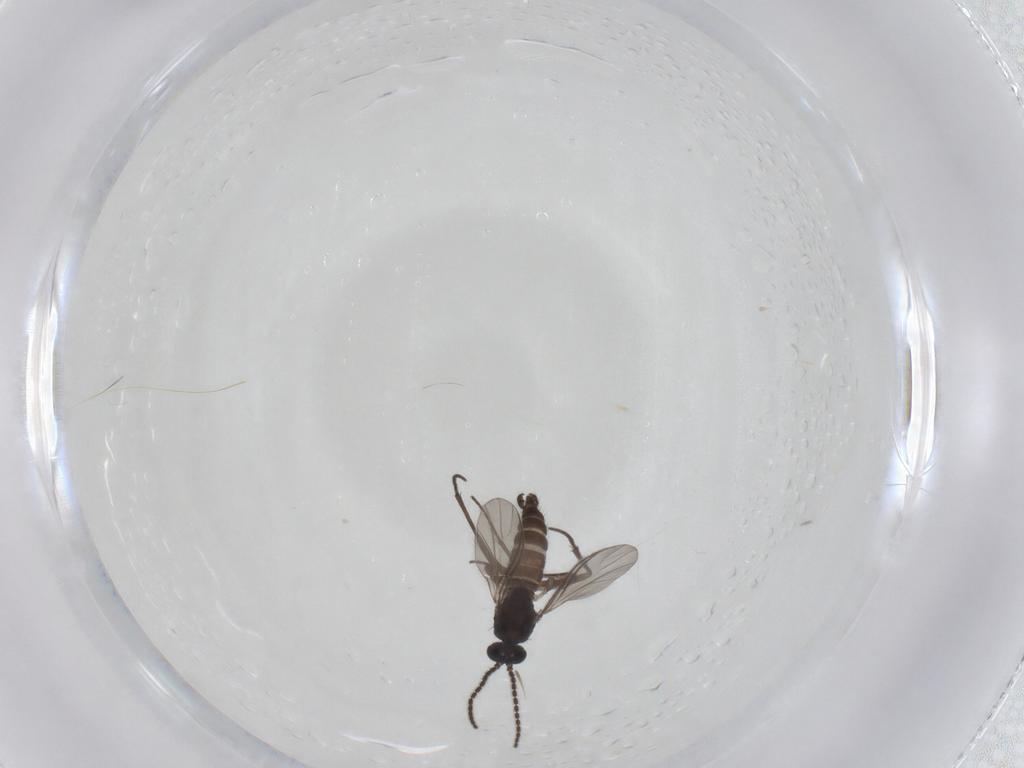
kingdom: Animalia
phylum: Arthropoda
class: Insecta
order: Diptera
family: Sciaridae
